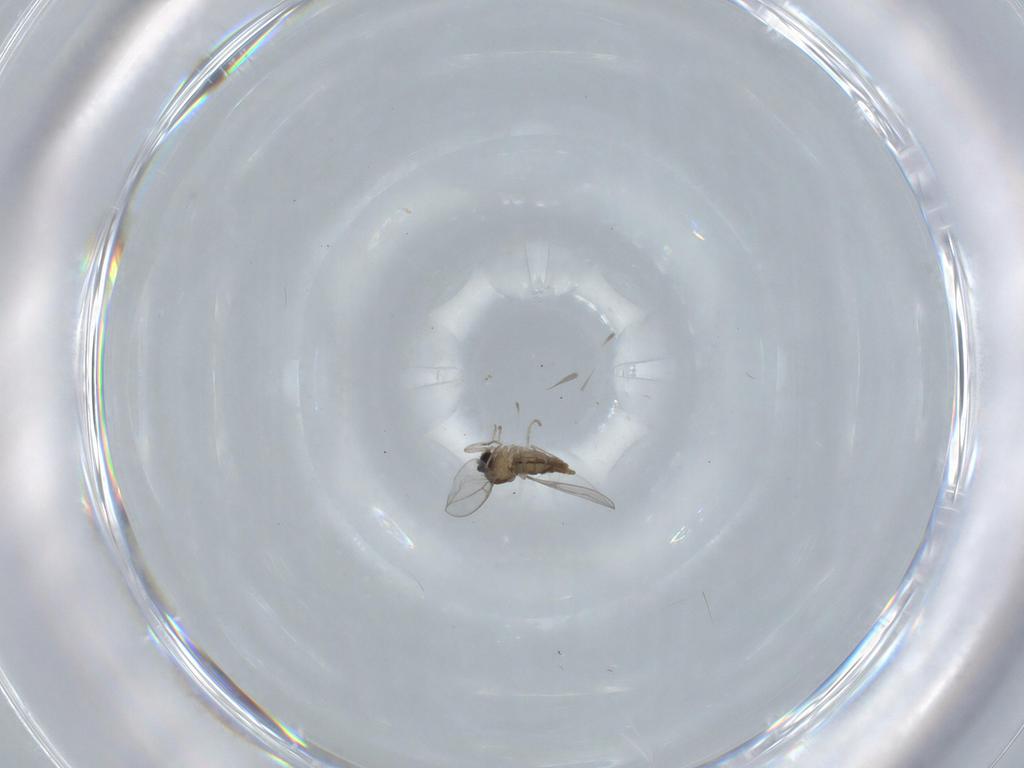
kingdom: Animalia
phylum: Arthropoda
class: Insecta
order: Diptera
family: Cecidomyiidae
